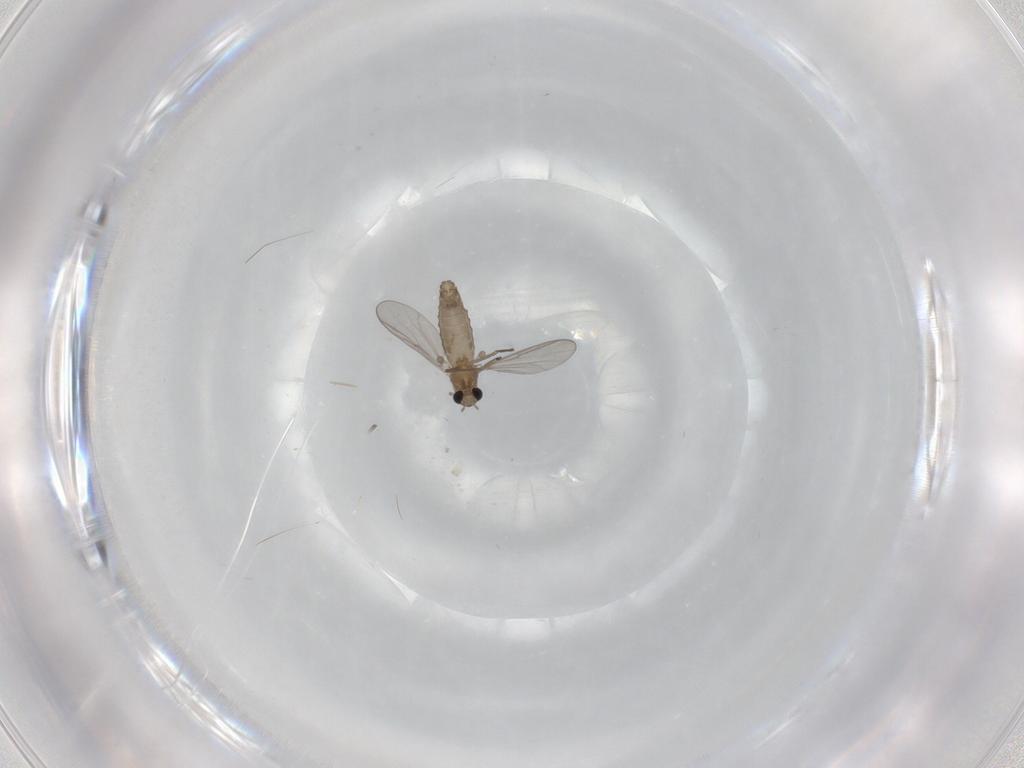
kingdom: Animalia
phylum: Arthropoda
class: Insecta
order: Diptera
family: Chironomidae
